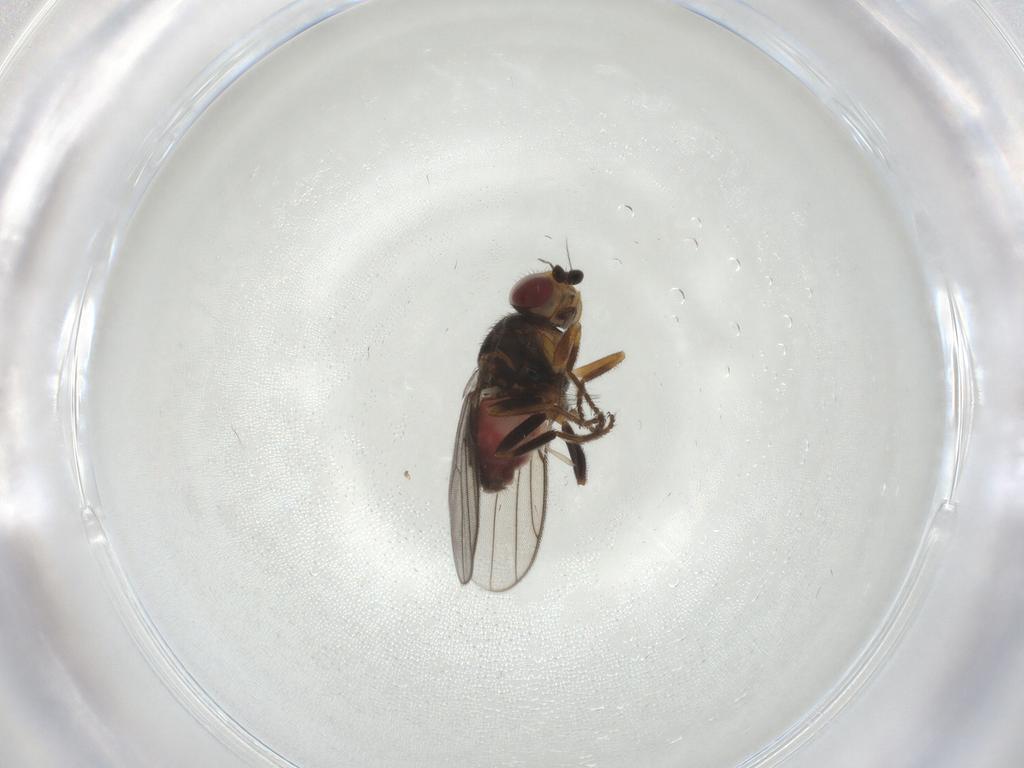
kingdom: Animalia
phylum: Arthropoda
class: Insecta
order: Diptera
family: Chloropidae
